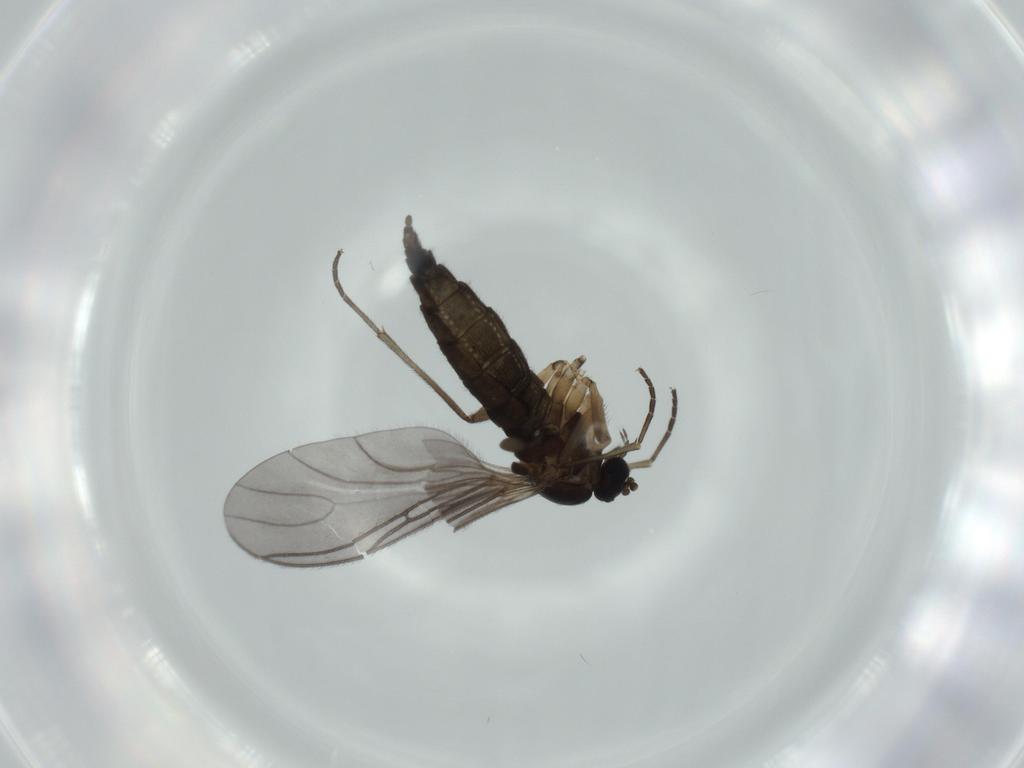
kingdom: Animalia
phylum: Arthropoda
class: Insecta
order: Diptera
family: Sciaridae
